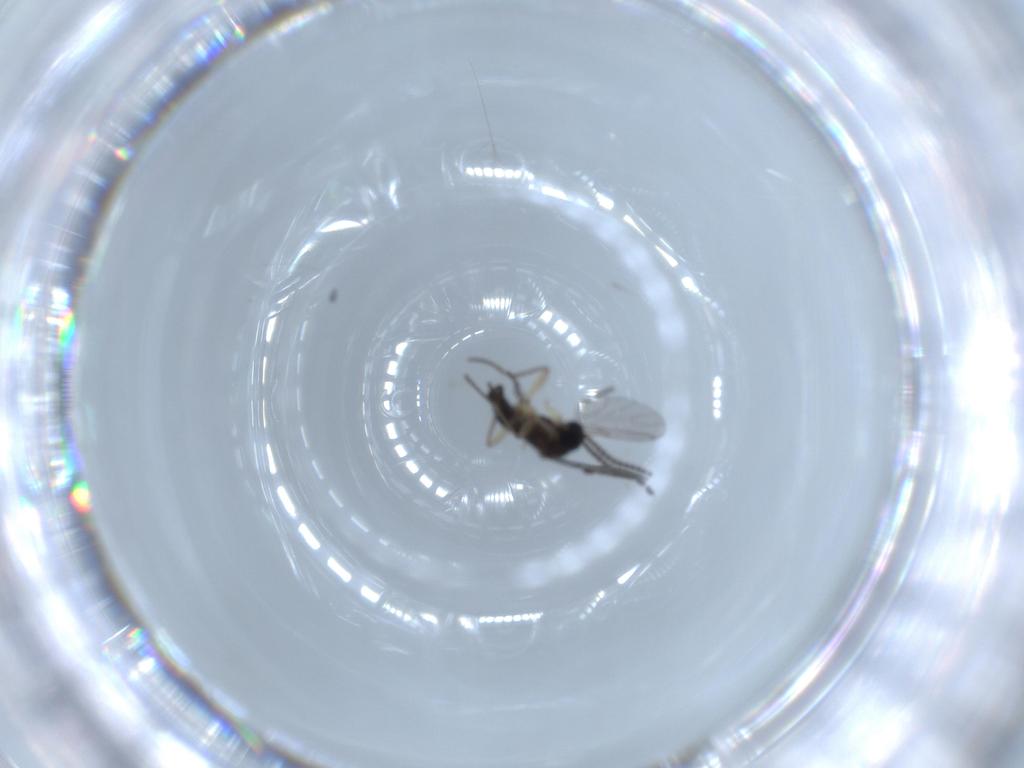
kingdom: Animalia
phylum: Arthropoda
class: Insecta
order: Diptera
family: Sciaridae
